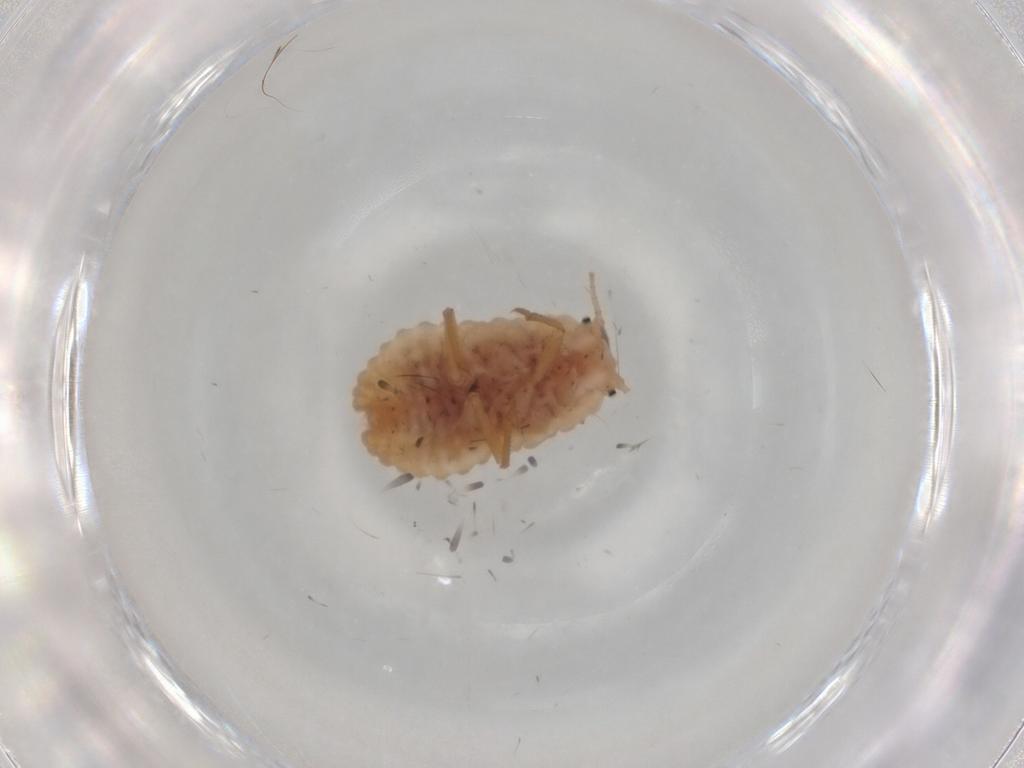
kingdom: Animalia
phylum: Arthropoda
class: Insecta
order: Hemiptera
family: Coccoidea_incertae_sedis
